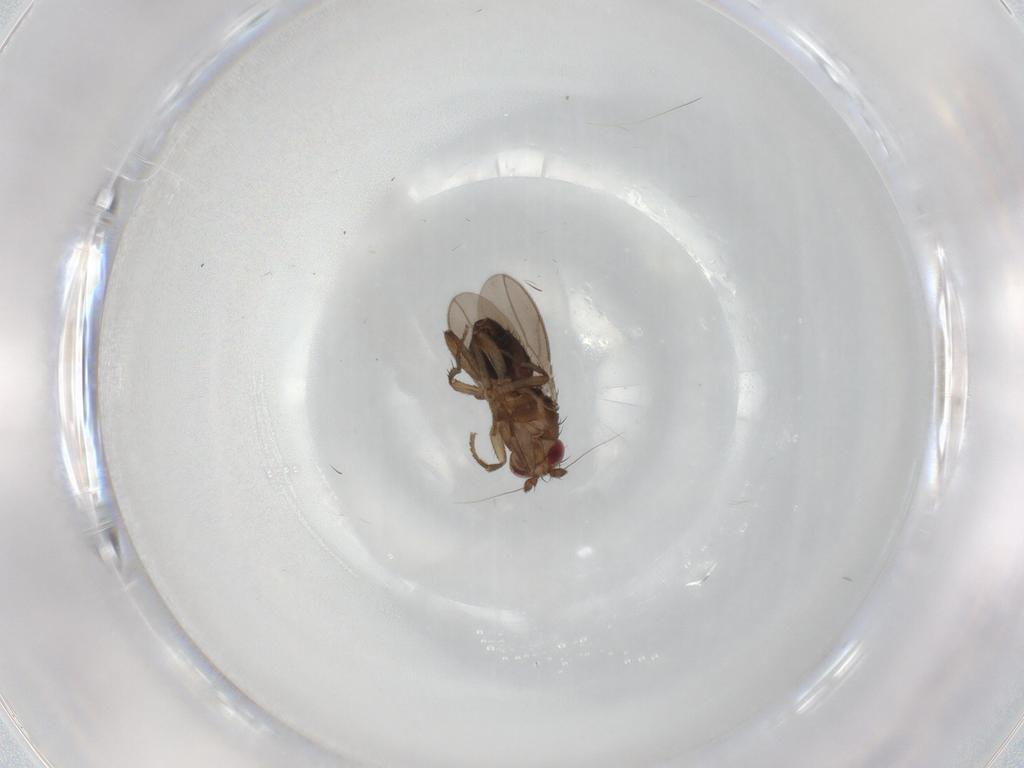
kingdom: Animalia
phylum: Arthropoda
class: Insecta
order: Diptera
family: Sphaeroceridae
